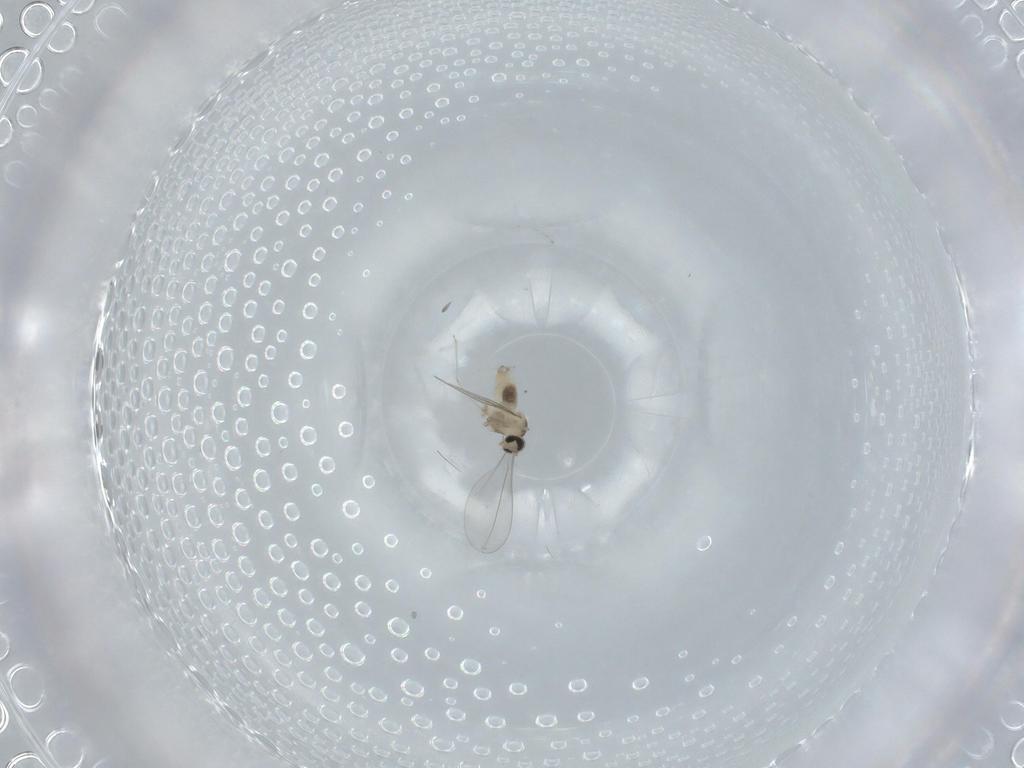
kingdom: Animalia
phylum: Arthropoda
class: Insecta
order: Diptera
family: Cecidomyiidae
